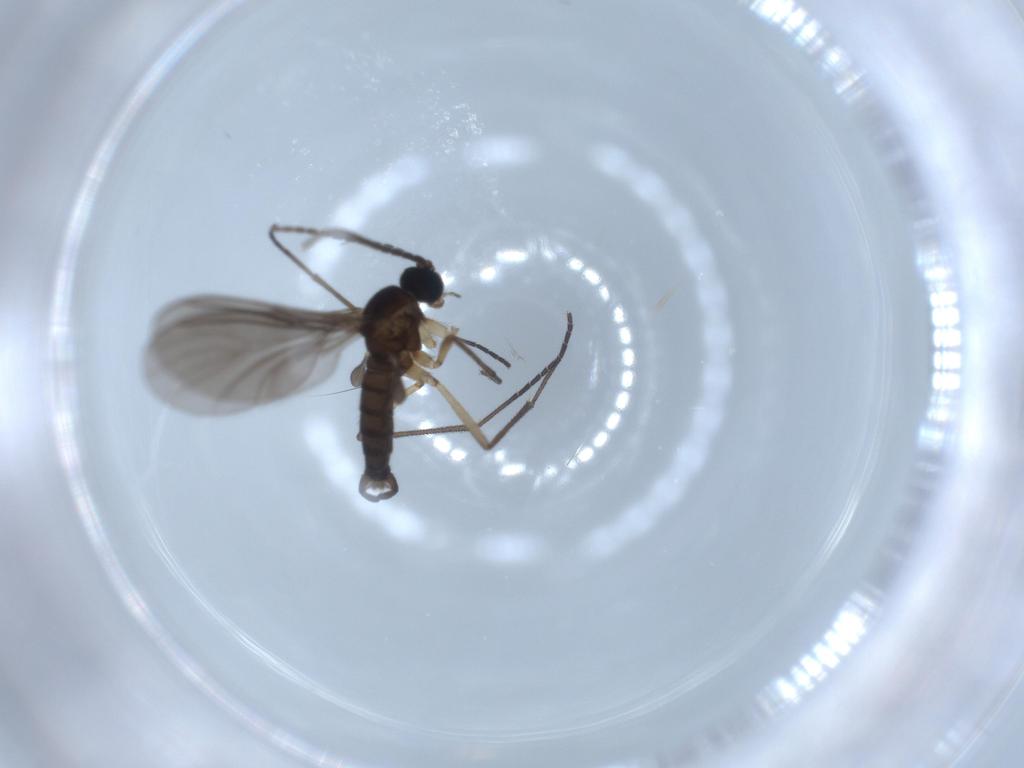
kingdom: Animalia
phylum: Arthropoda
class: Insecta
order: Diptera
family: Sciaridae
